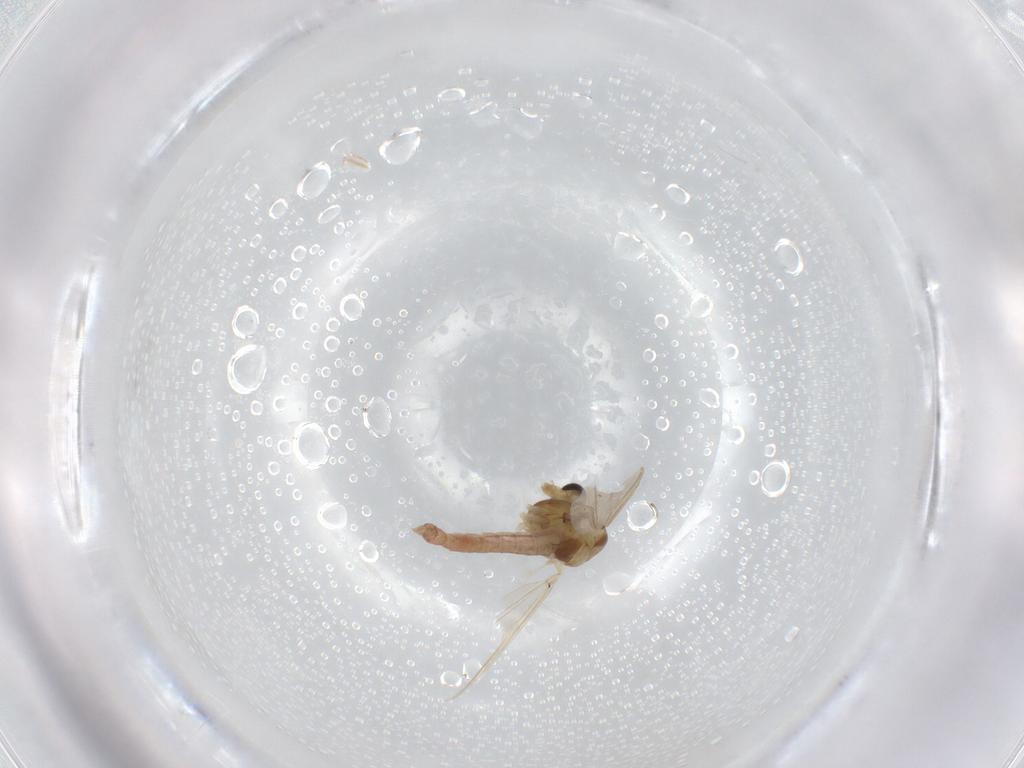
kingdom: Animalia
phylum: Arthropoda
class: Insecta
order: Diptera
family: Chironomidae
